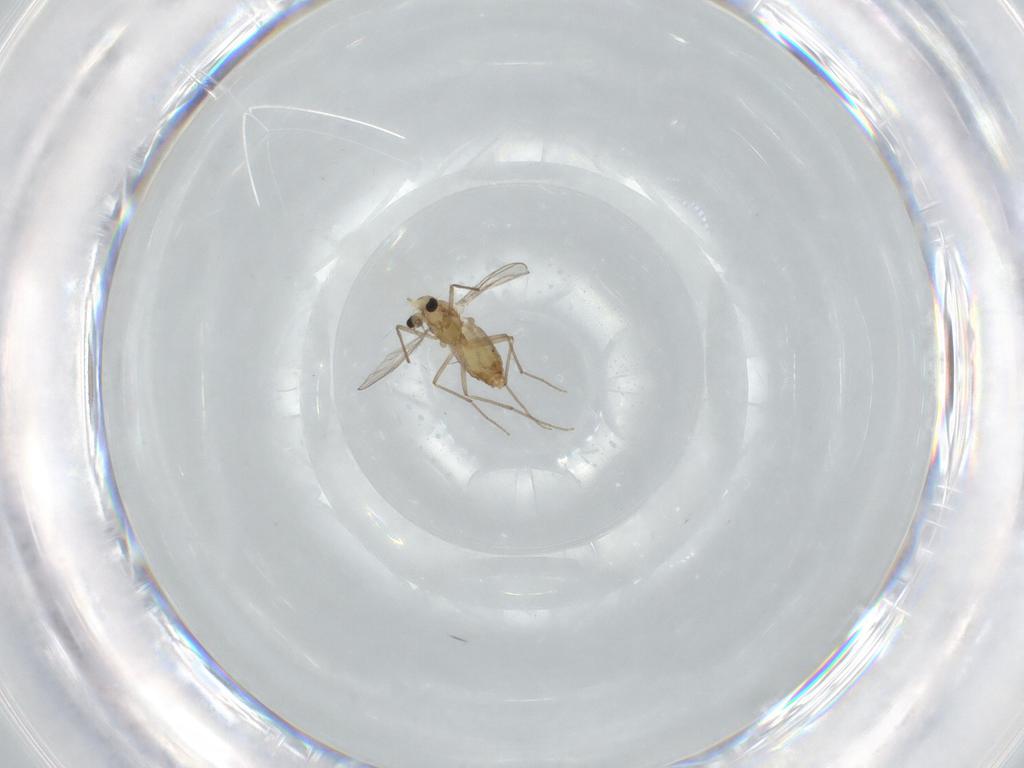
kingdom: Animalia
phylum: Arthropoda
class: Insecta
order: Diptera
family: Chironomidae
